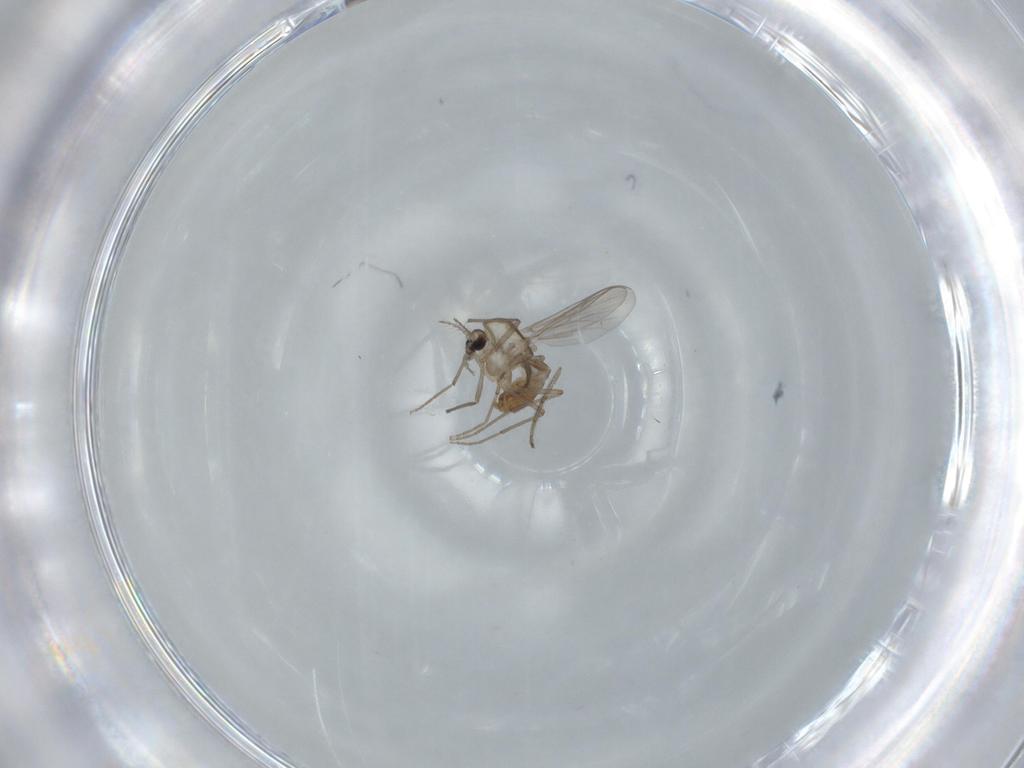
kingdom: Animalia
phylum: Arthropoda
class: Insecta
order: Diptera
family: Chironomidae
